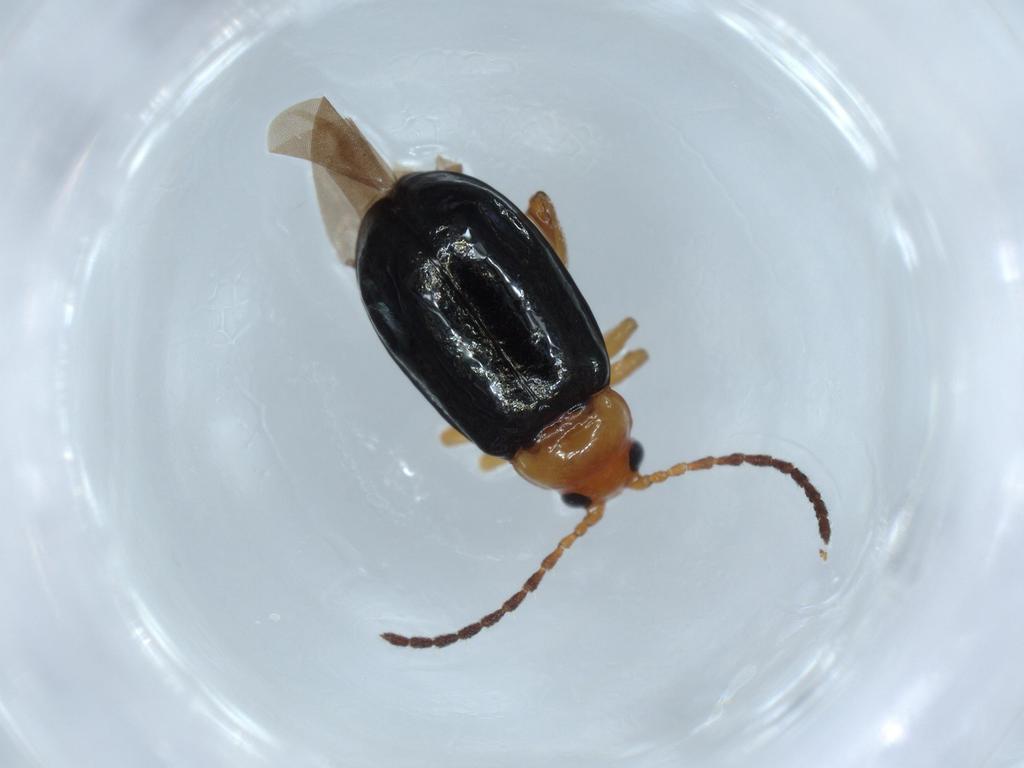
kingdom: Animalia
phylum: Arthropoda
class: Insecta
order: Coleoptera
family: Chrysomelidae
